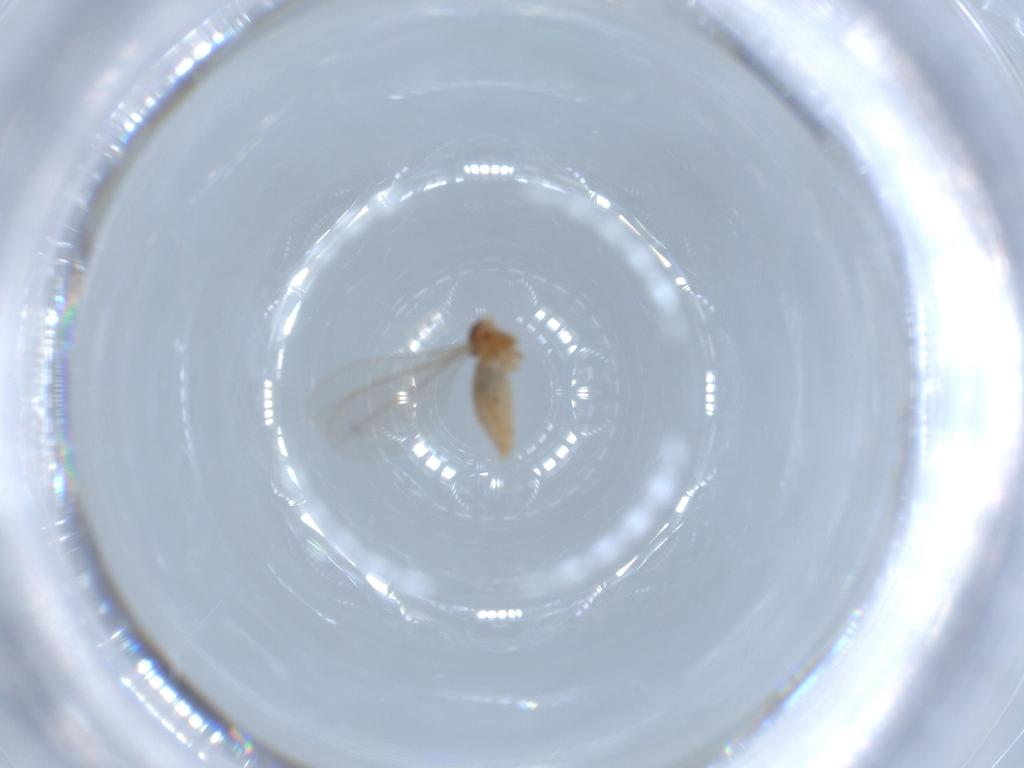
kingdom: Animalia
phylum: Arthropoda
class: Insecta
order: Diptera
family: Cecidomyiidae
